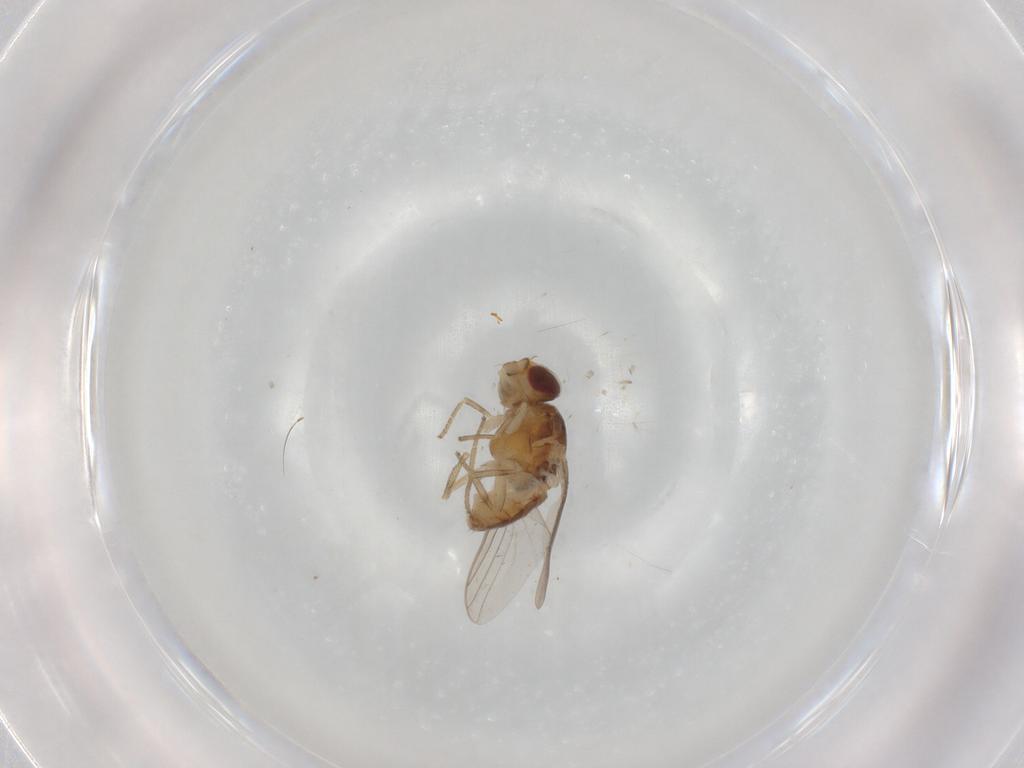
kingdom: Animalia
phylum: Arthropoda
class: Insecta
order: Diptera
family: Chloropidae
